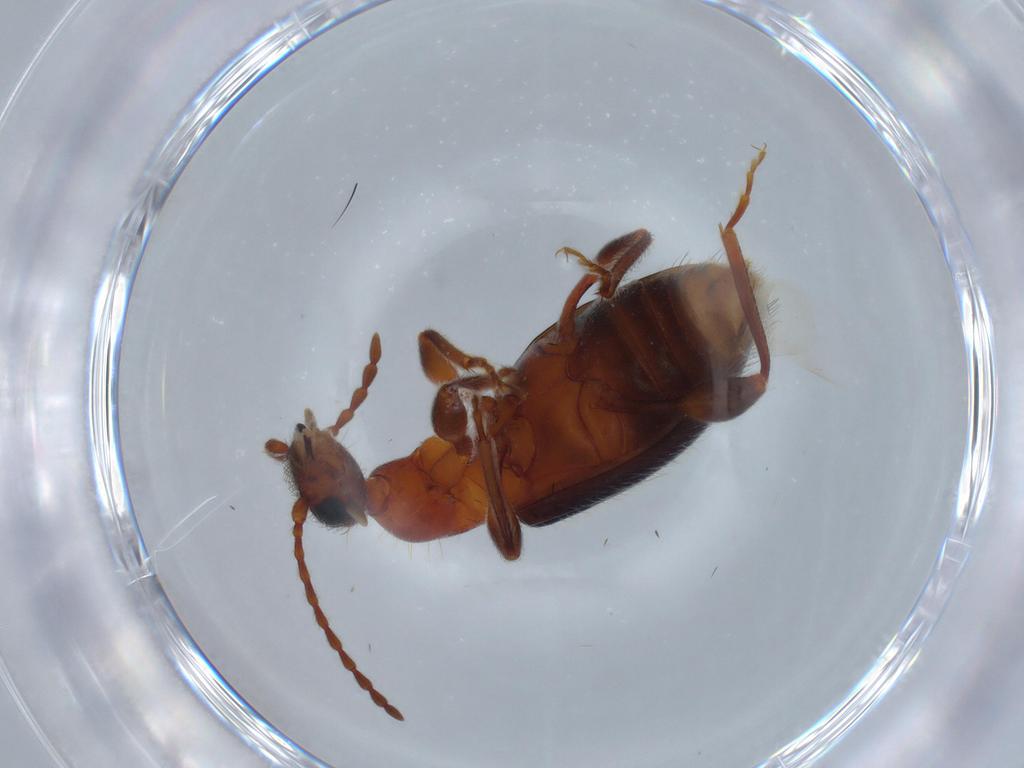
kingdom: Animalia
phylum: Arthropoda
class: Insecta
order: Coleoptera
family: Anthicidae
